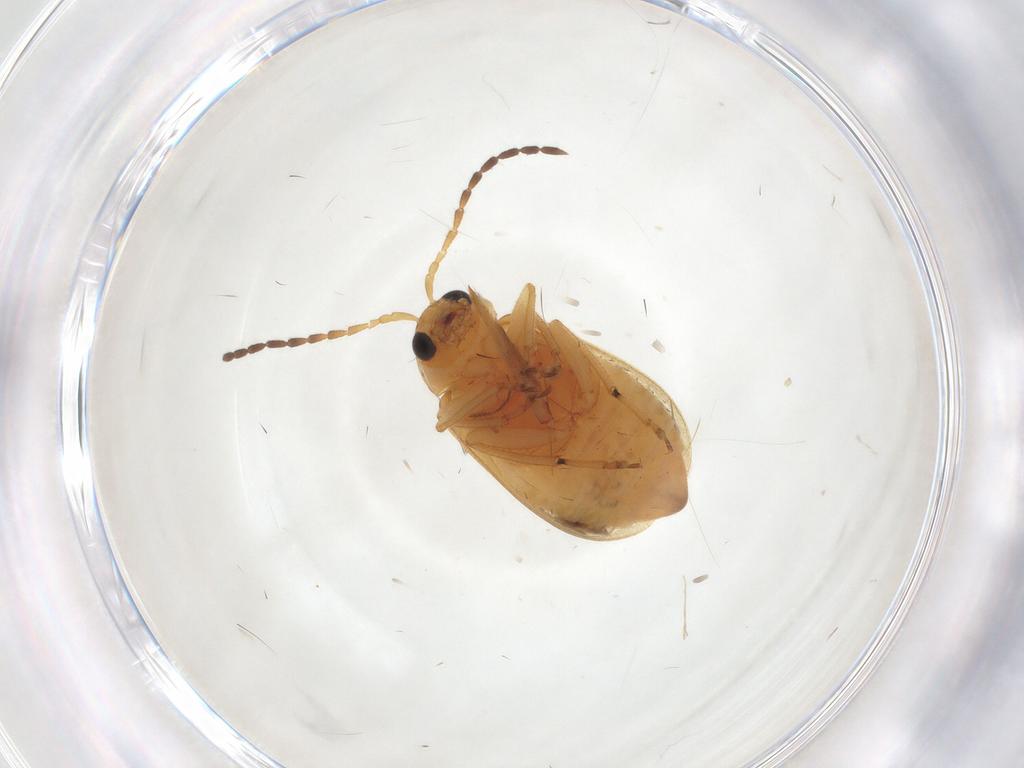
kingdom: Animalia
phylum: Arthropoda
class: Insecta
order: Coleoptera
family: Chrysomelidae
